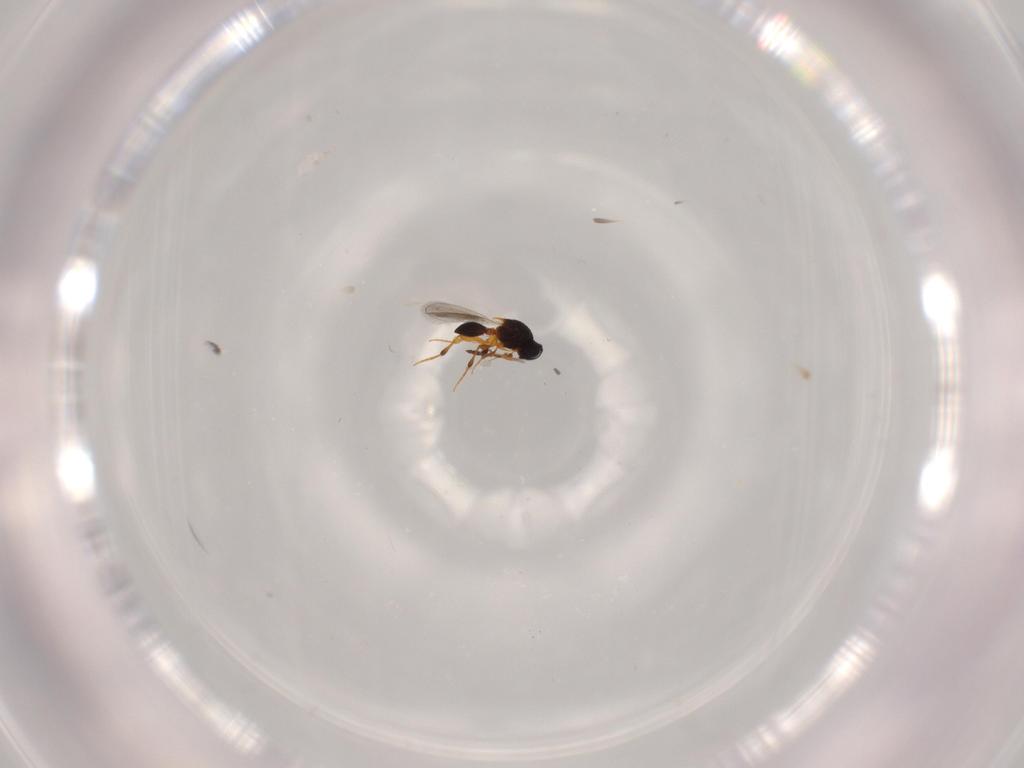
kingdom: Animalia
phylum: Arthropoda
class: Insecta
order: Hymenoptera
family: Platygastridae
